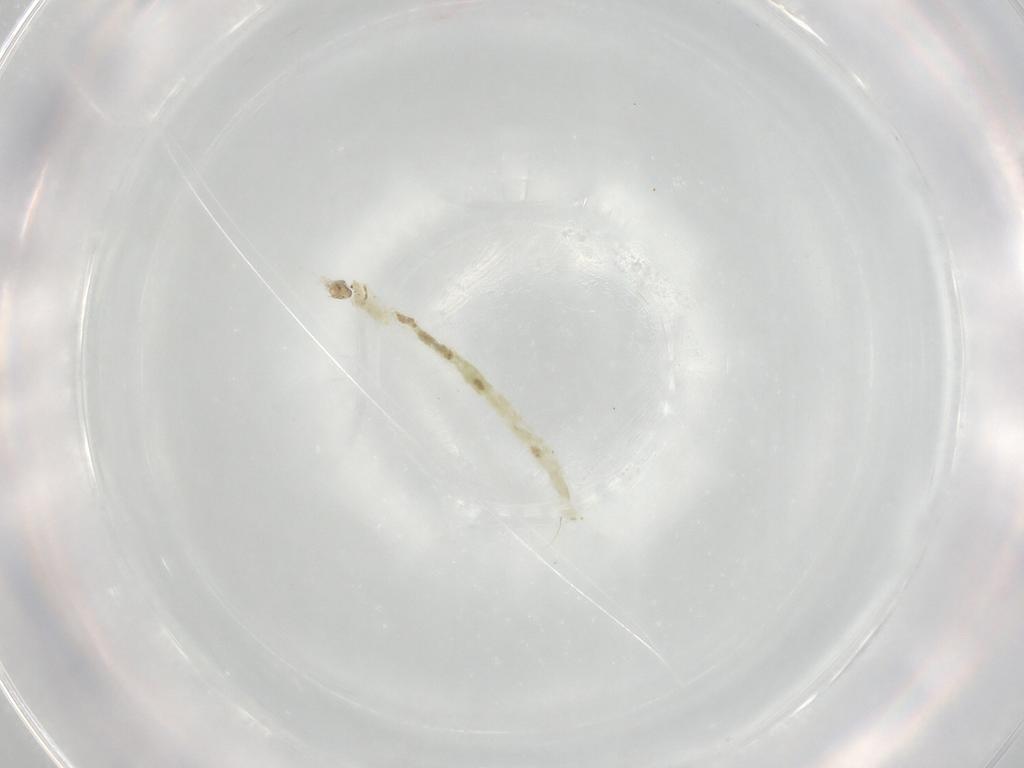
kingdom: Animalia
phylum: Arthropoda
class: Insecta
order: Diptera
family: Chironomidae
